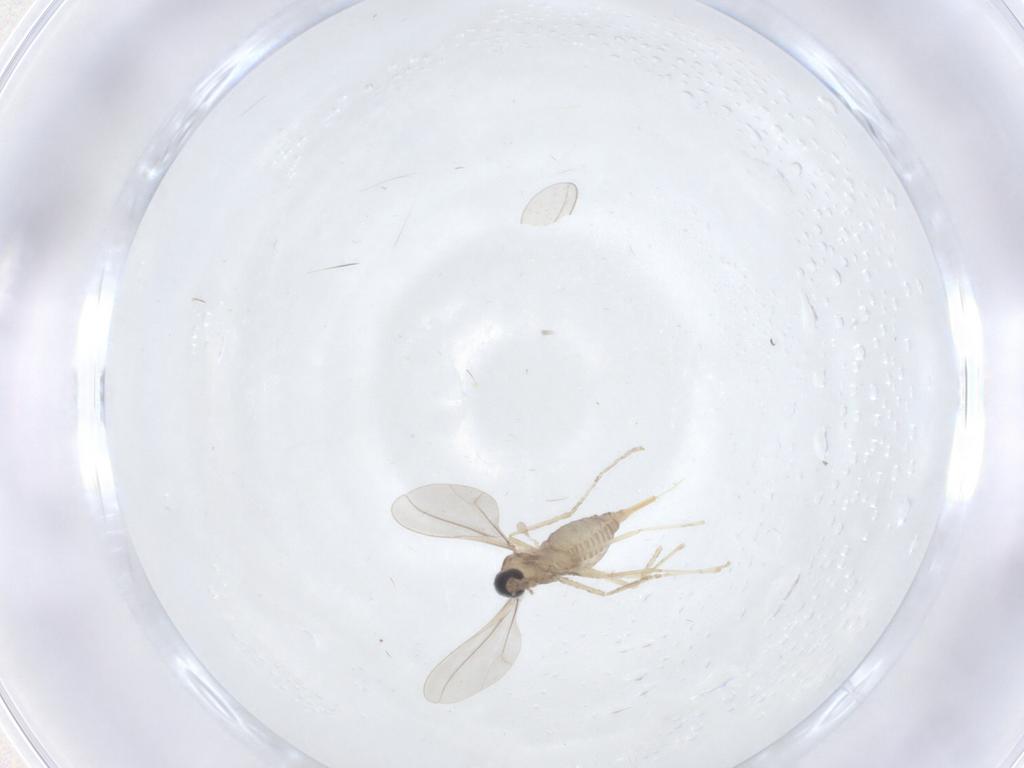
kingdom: Animalia
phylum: Arthropoda
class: Insecta
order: Diptera
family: Cecidomyiidae
